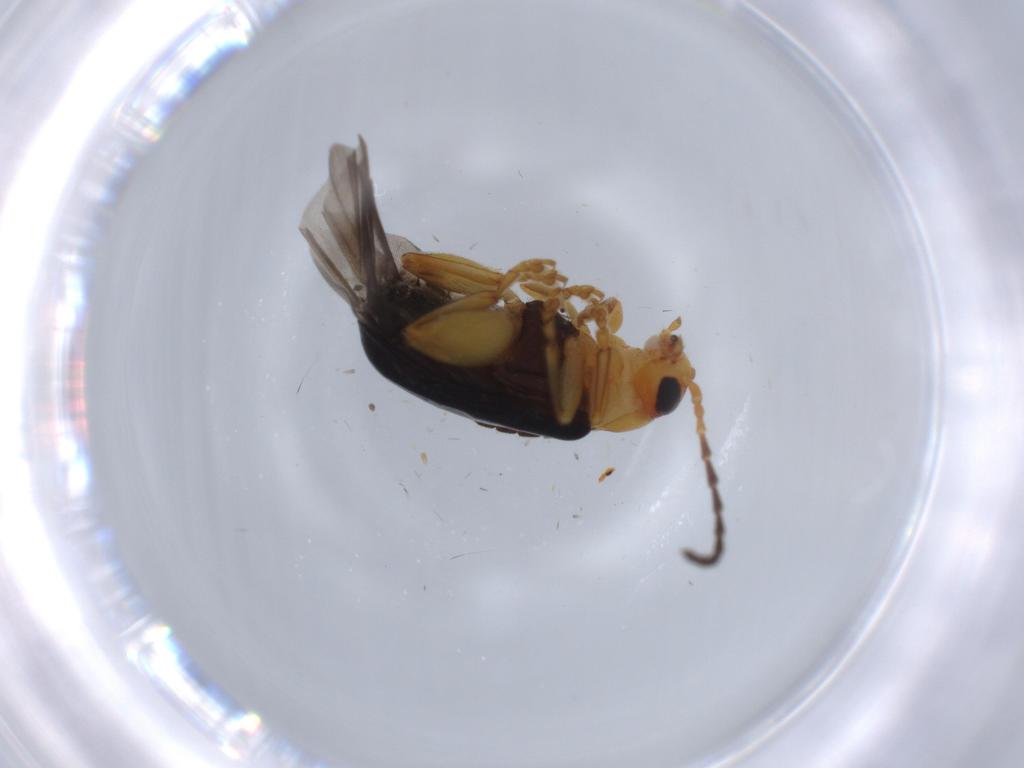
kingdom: Animalia
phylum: Arthropoda
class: Insecta
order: Coleoptera
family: Chrysomelidae
